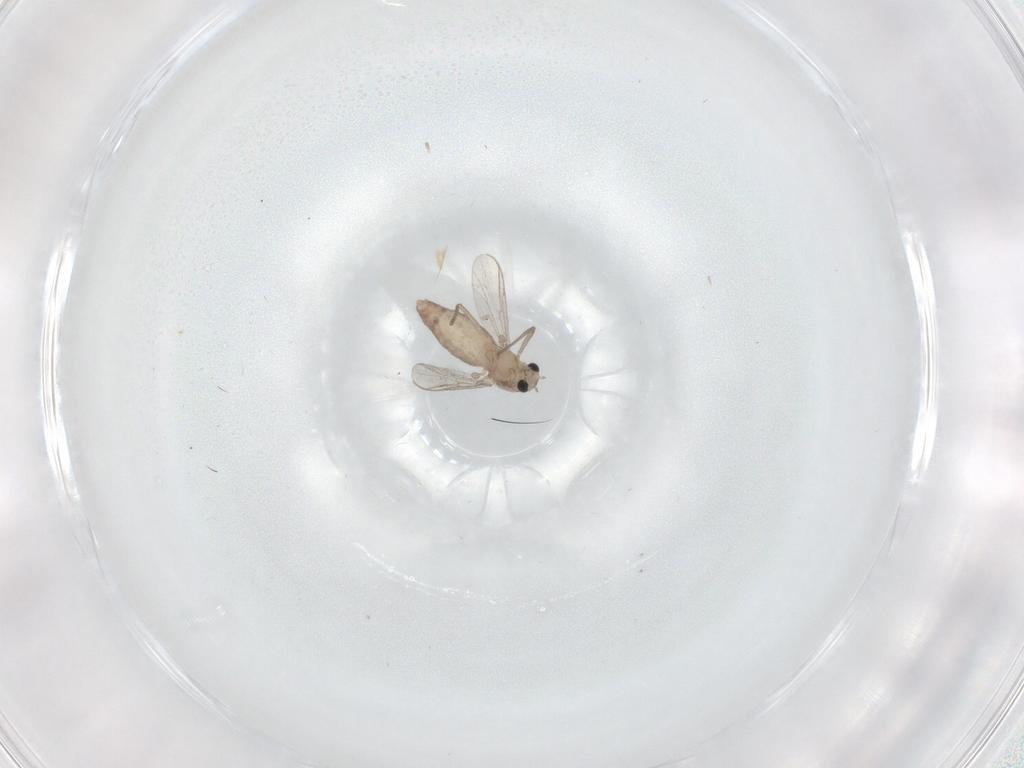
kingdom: Animalia
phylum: Arthropoda
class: Insecta
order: Diptera
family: Chironomidae
